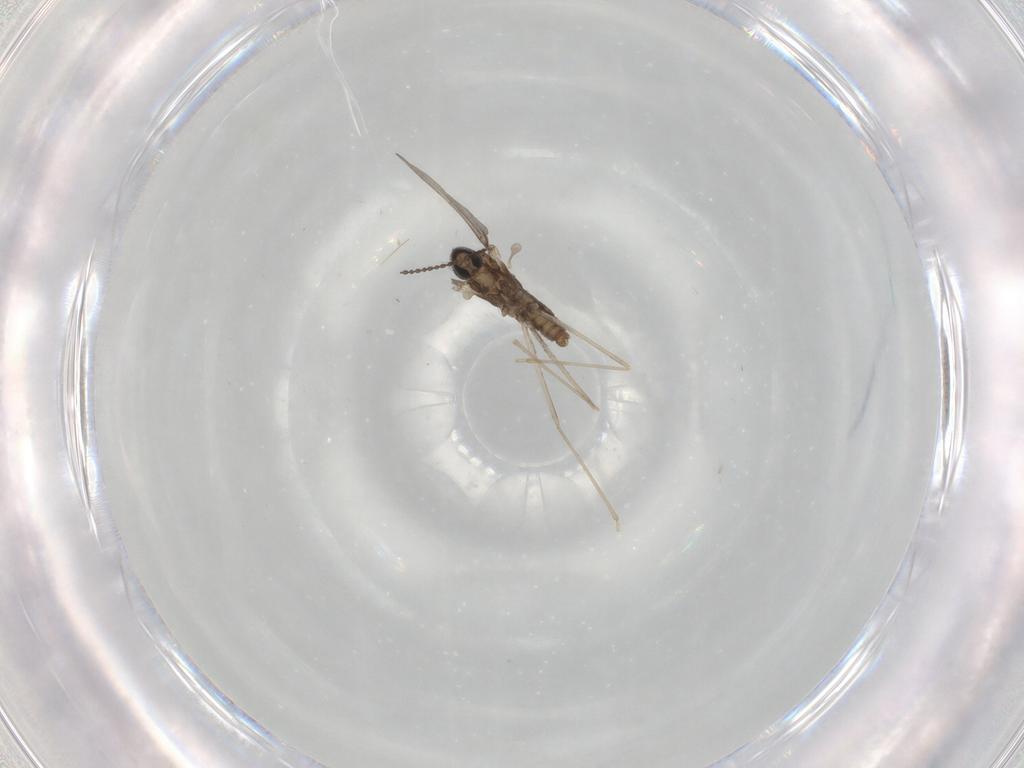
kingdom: Animalia
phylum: Arthropoda
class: Insecta
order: Diptera
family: Cecidomyiidae
